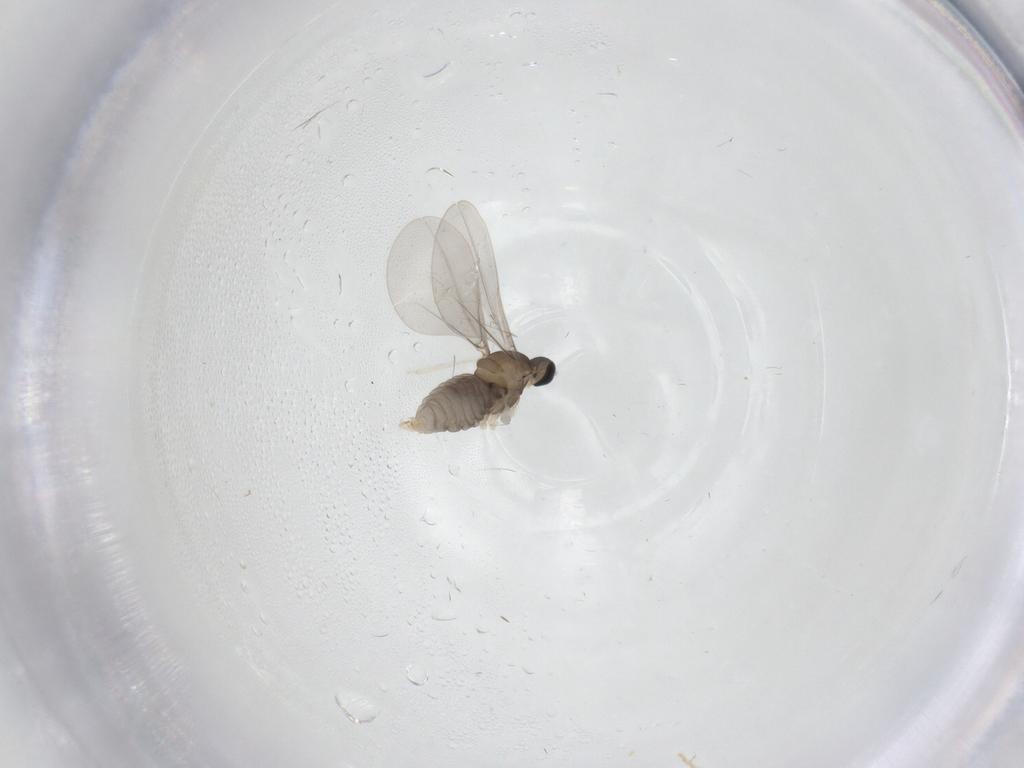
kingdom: Animalia
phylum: Arthropoda
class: Insecta
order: Diptera
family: Cecidomyiidae
